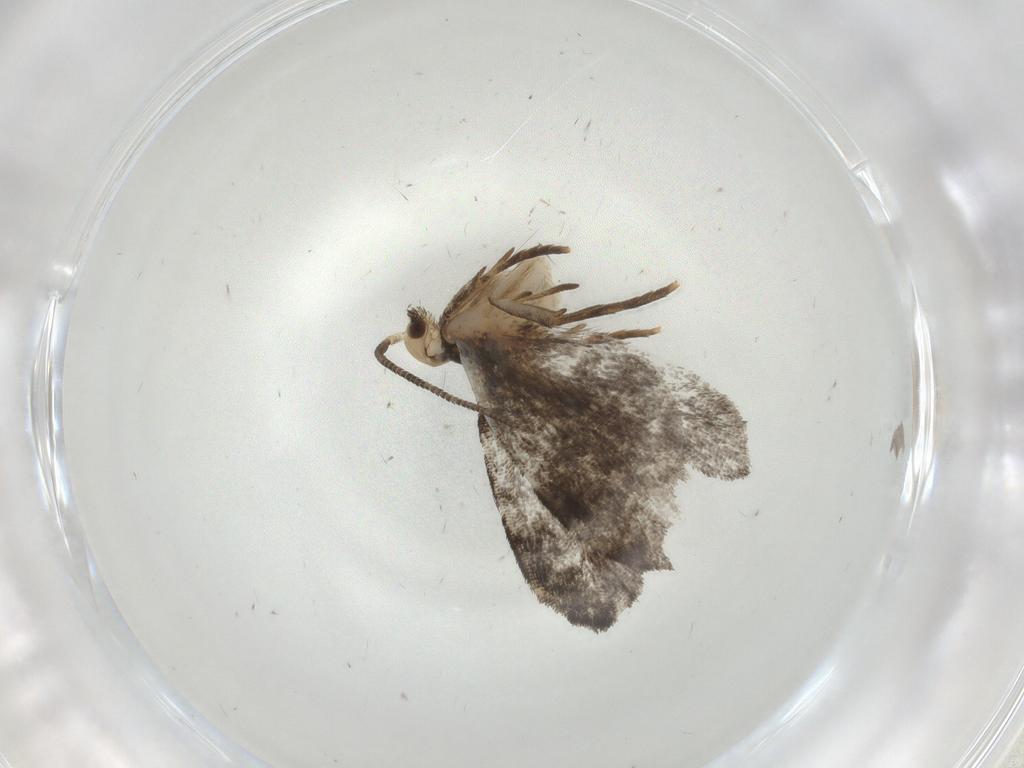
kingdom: Animalia
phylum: Arthropoda
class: Insecta
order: Lepidoptera
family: Dryadaulidae
